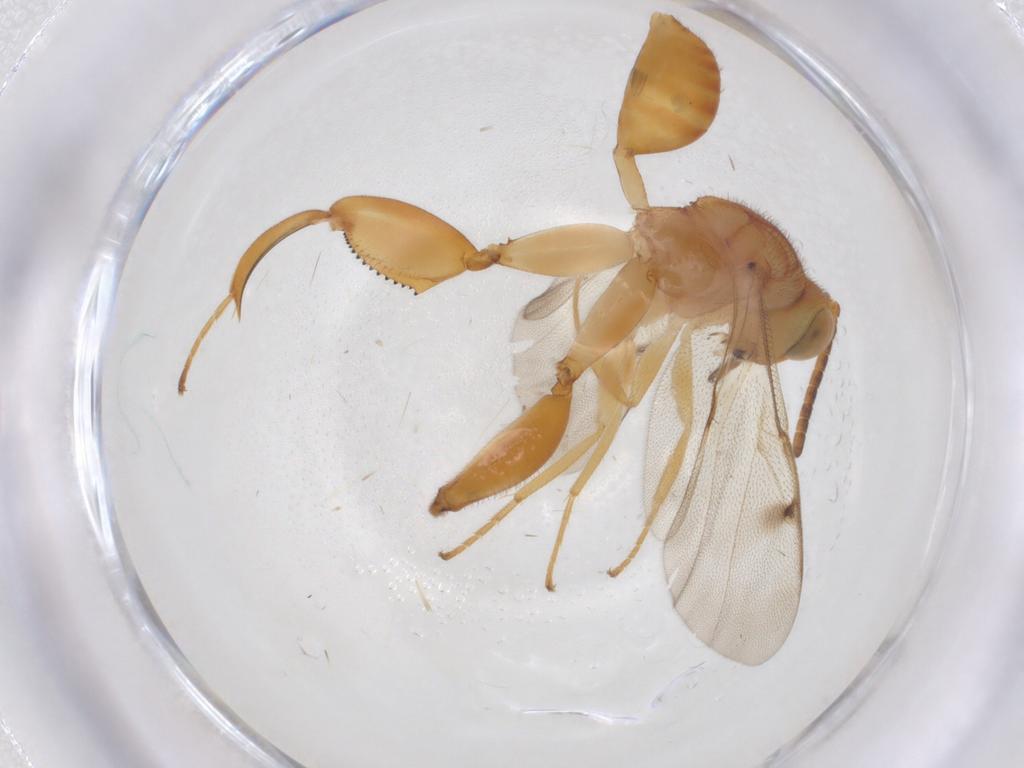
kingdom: Animalia
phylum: Arthropoda
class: Insecta
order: Hymenoptera
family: Chalcididae
